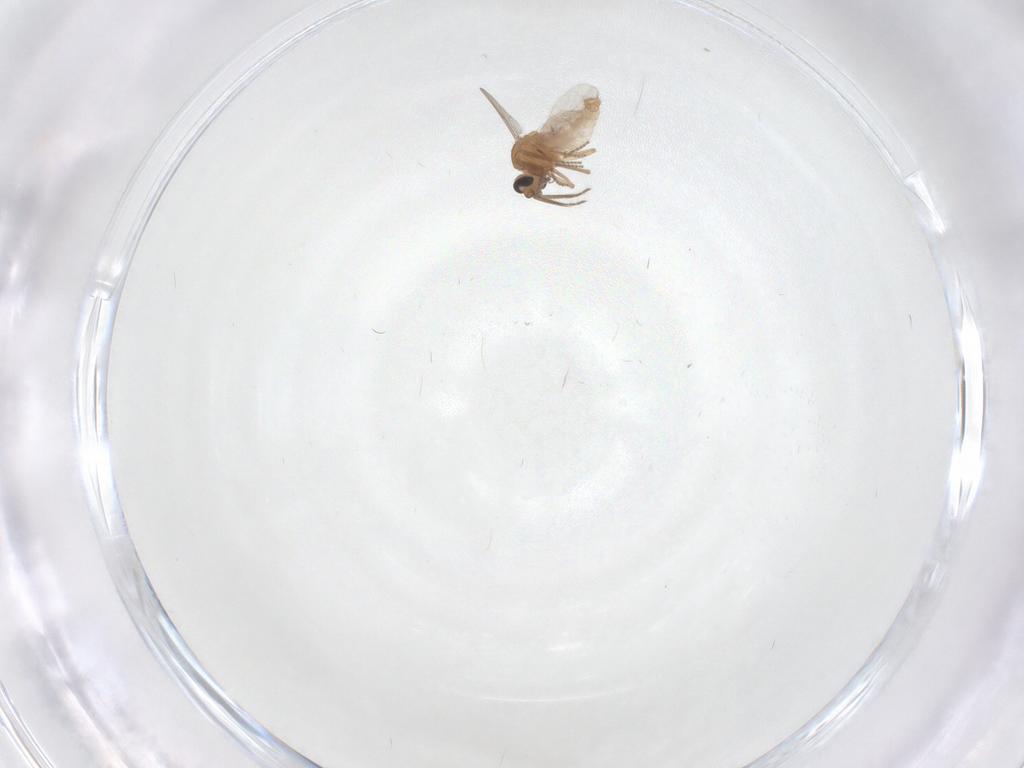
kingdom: Animalia
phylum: Arthropoda
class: Insecta
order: Diptera
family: Ceratopogonidae
